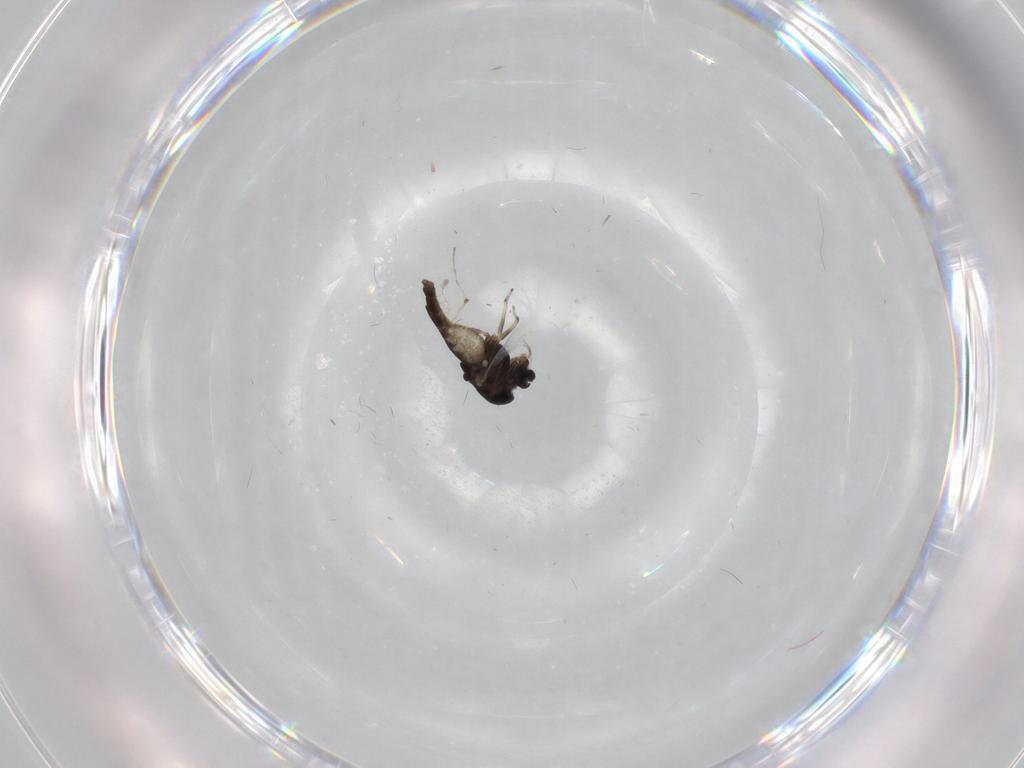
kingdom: Animalia
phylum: Arthropoda
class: Insecta
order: Diptera
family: Chironomidae
